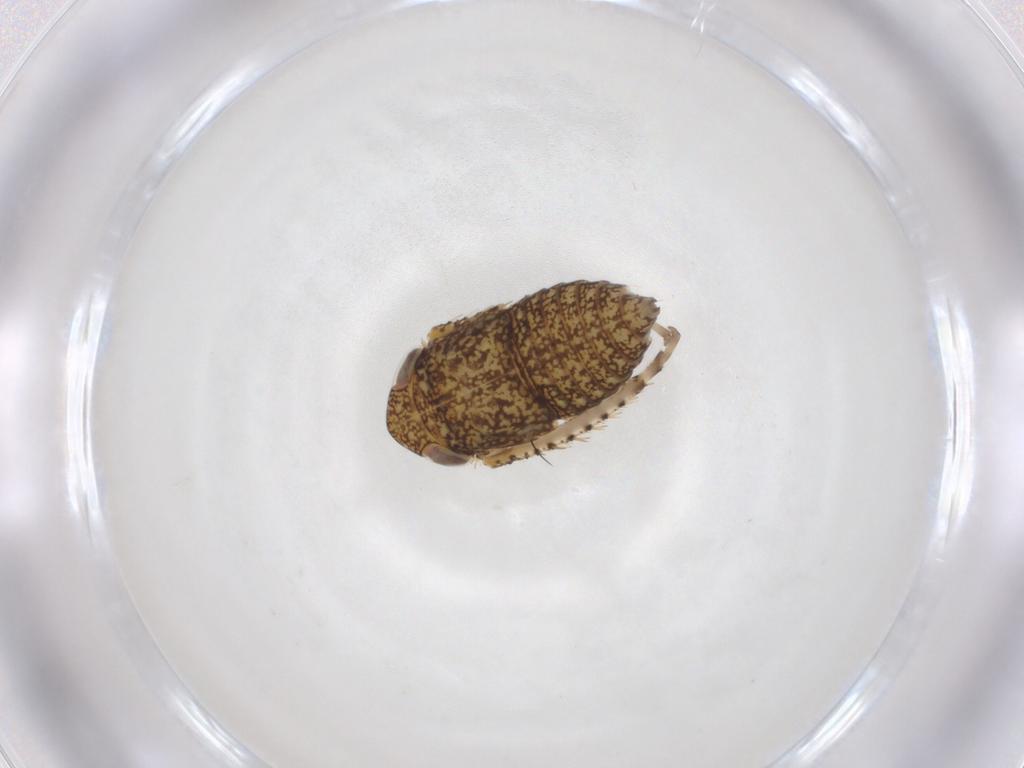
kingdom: Animalia
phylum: Arthropoda
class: Insecta
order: Hemiptera
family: Cicadellidae
